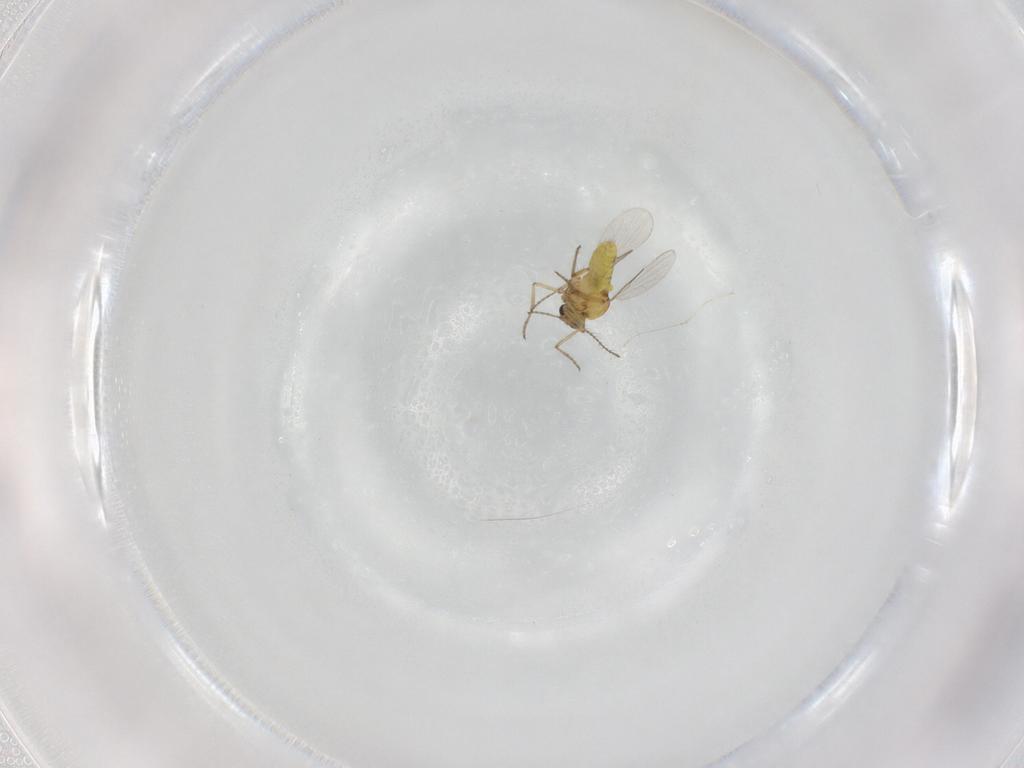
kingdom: Animalia
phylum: Arthropoda
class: Insecta
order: Diptera
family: Ceratopogonidae
